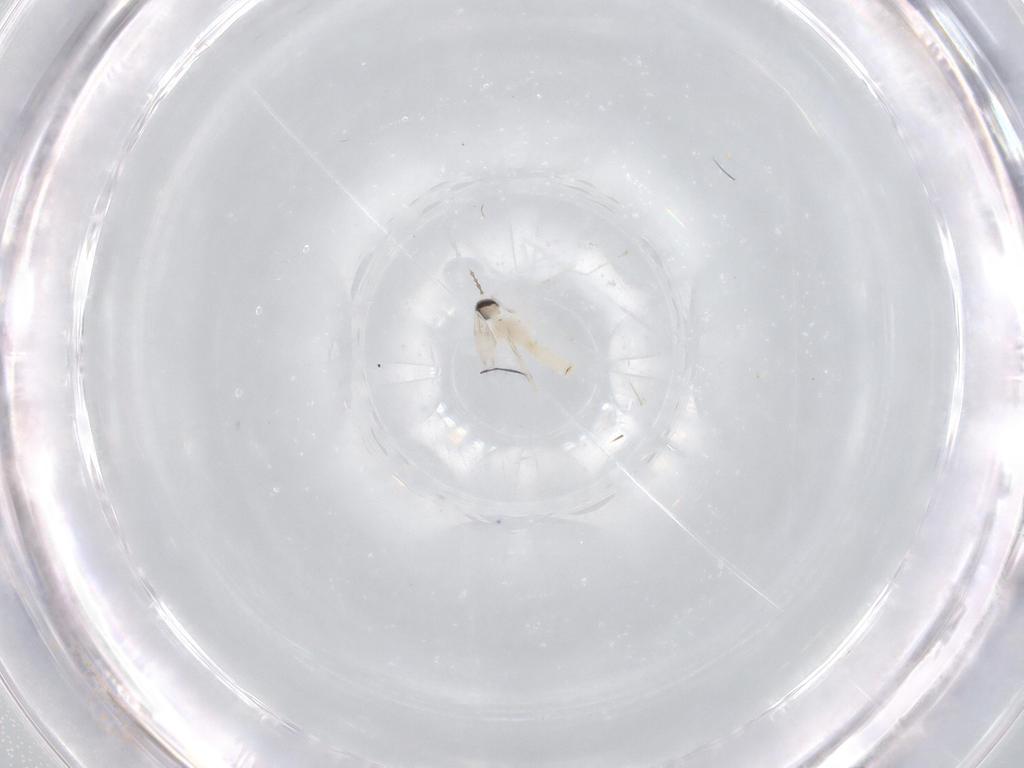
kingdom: Animalia
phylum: Arthropoda
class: Insecta
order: Diptera
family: Cecidomyiidae
